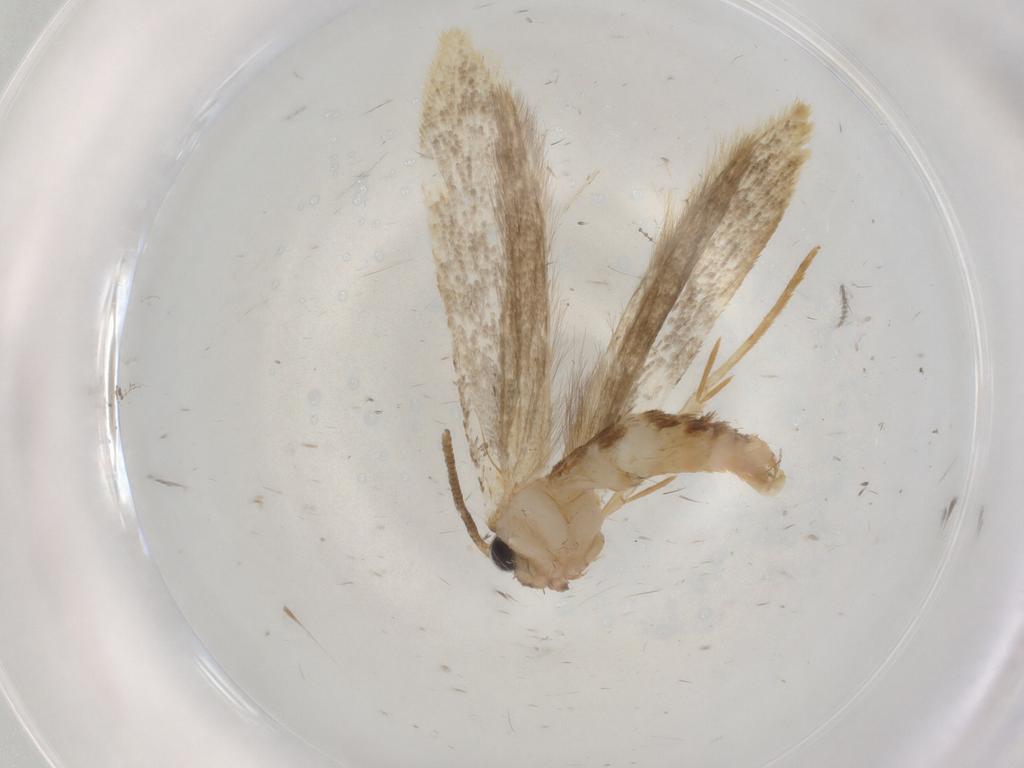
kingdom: Animalia
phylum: Arthropoda
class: Insecta
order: Lepidoptera
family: Tineidae
